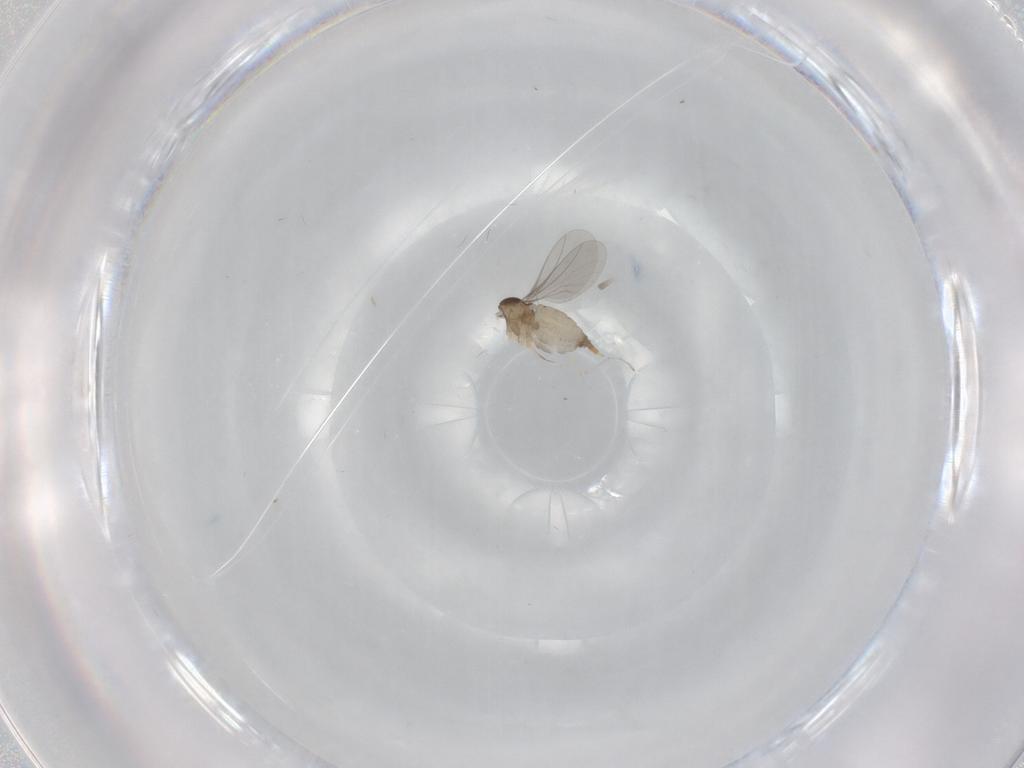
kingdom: Animalia
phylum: Arthropoda
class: Insecta
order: Diptera
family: Cecidomyiidae
